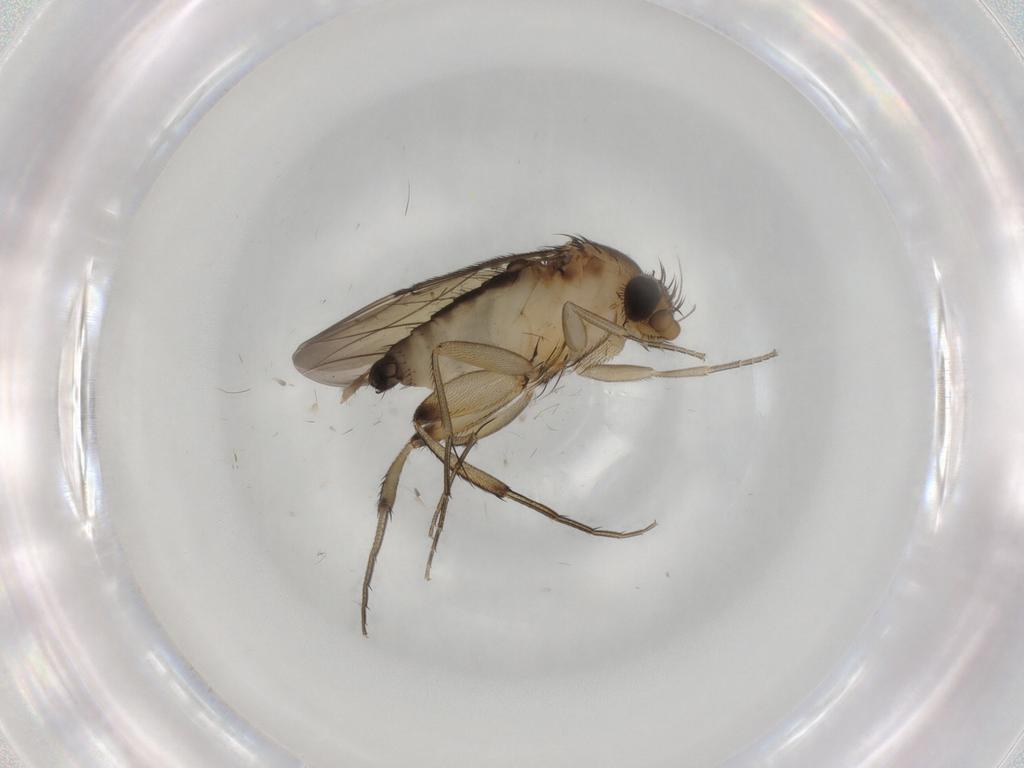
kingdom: Animalia
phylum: Arthropoda
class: Insecta
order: Diptera
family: Phoridae
